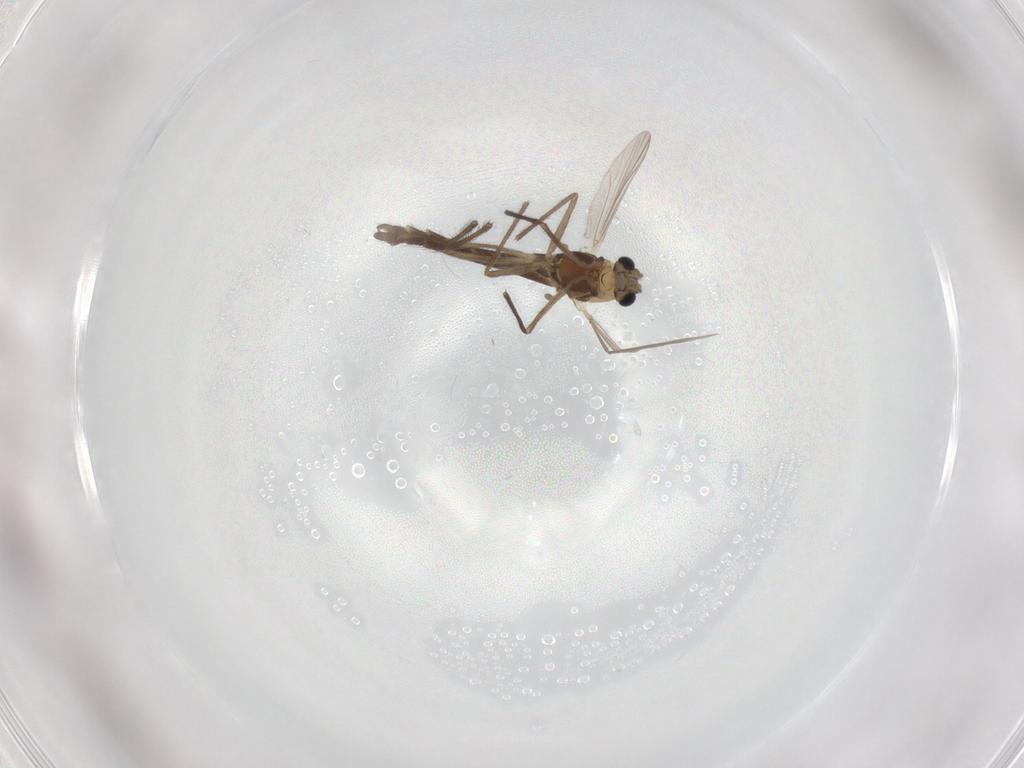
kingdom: Animalia
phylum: Arthropoda
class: Insecta
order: Diptera
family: Chironomidae
